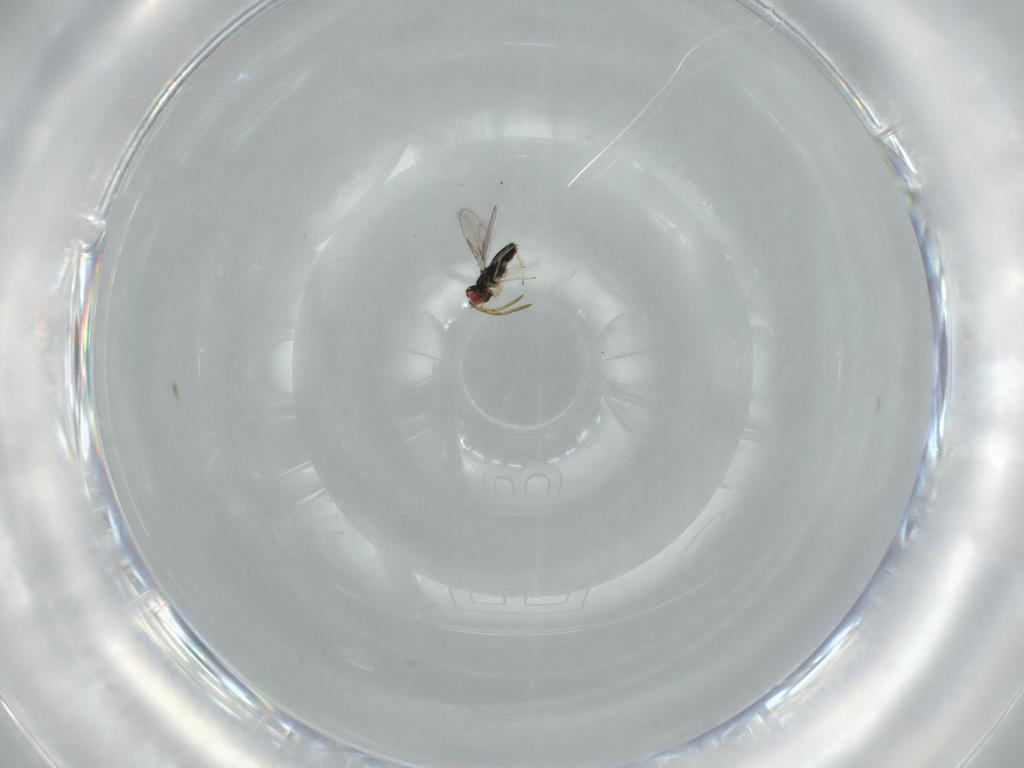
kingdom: Animalia
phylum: Arthropoda
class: Insecta
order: Hymenoptera
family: Azotidae
